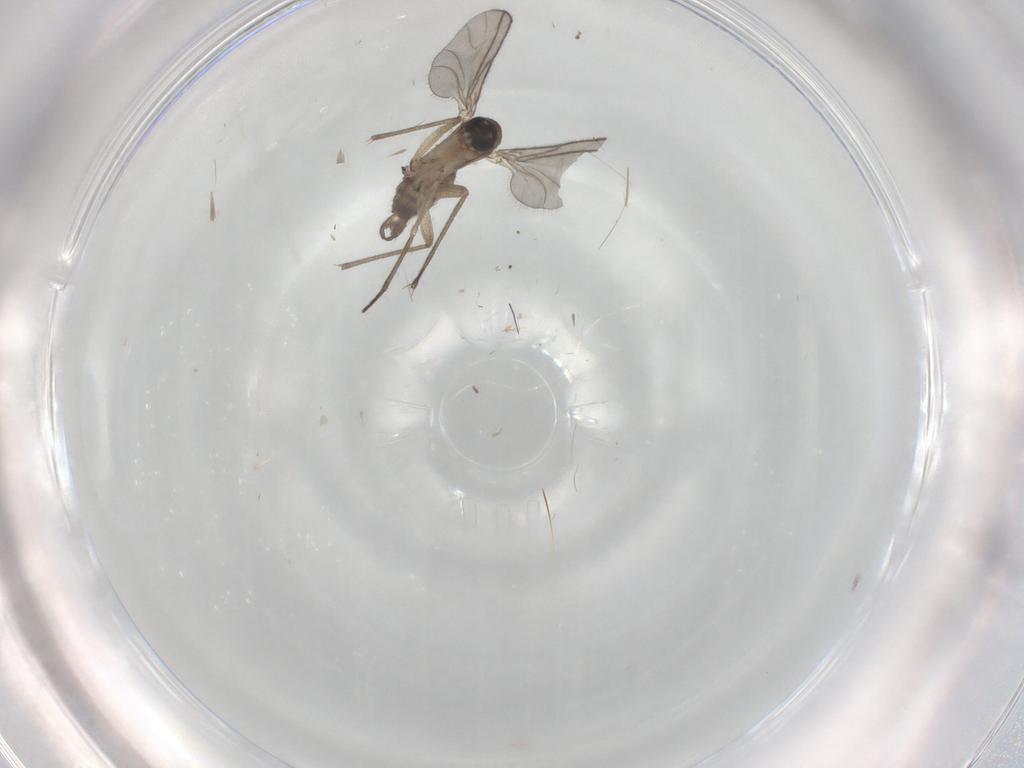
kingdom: Animalia
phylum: Arthropoda
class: Insecta
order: Diptera
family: Sciaridae
